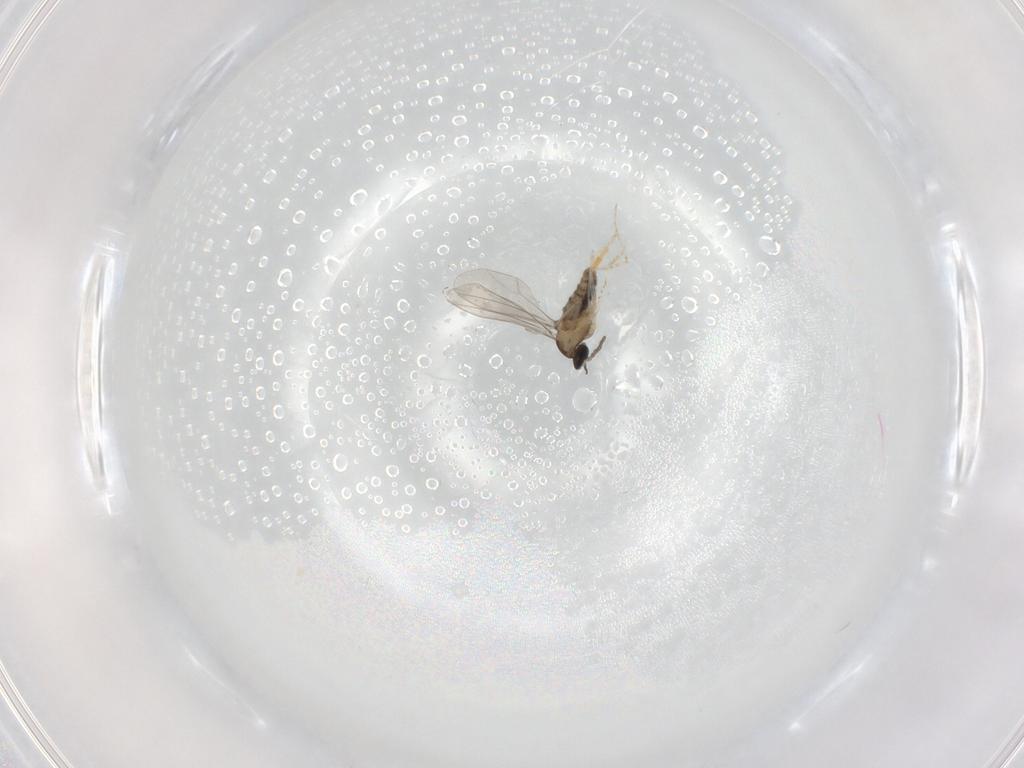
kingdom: Animalia
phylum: Arthropoda
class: Insecta
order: Diptera
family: Cecidomyiidae
